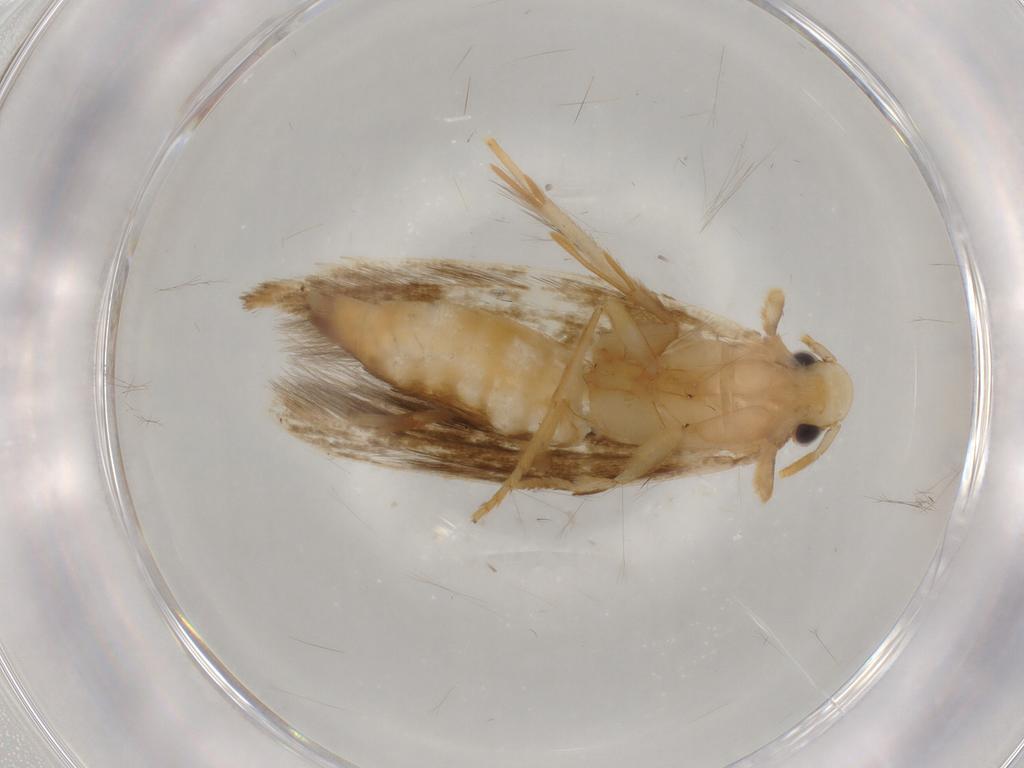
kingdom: Animalia
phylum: Arthropoda
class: Insecta
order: Lepidoptera
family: Tineidae
